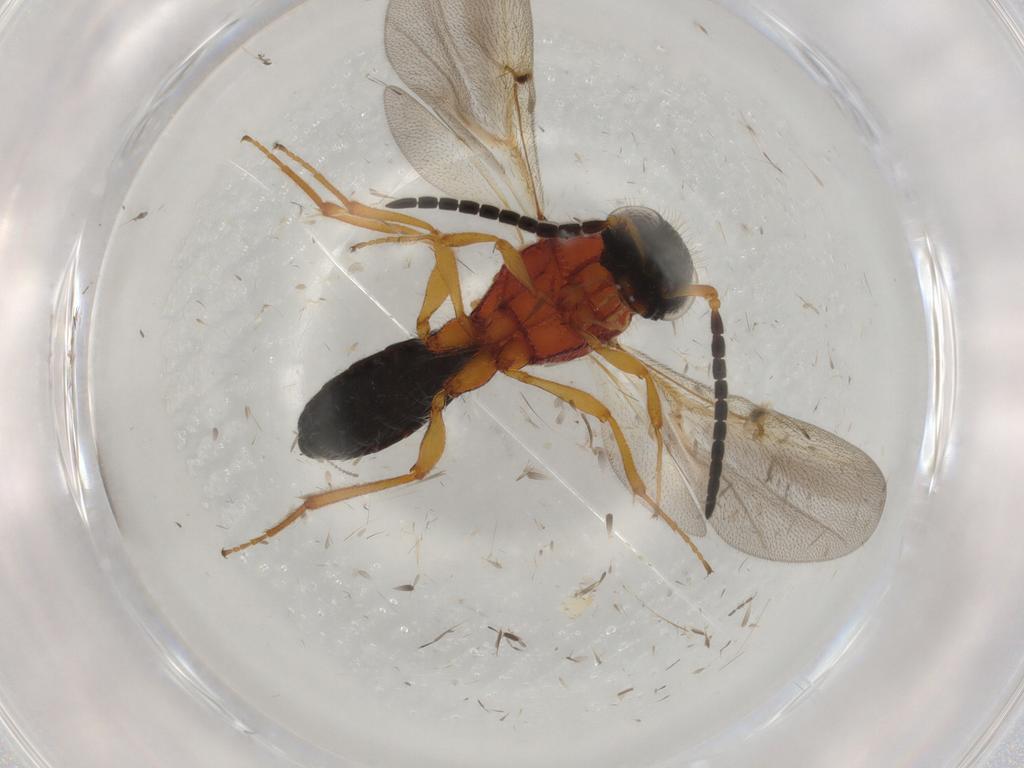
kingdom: Animalia
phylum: Arthropoda
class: Insecta
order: Hymenoptera
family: Scelionidae
